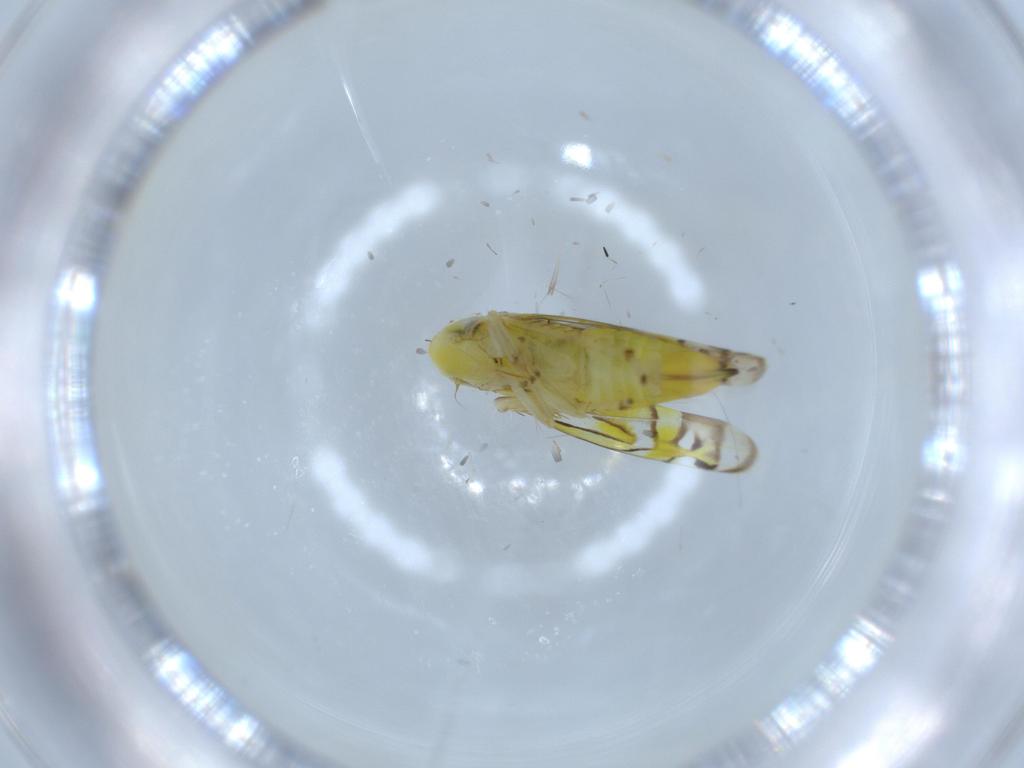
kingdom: Animalia
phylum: Arthropoda
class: Insecta
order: Hemiptera
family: Cicadellidae
